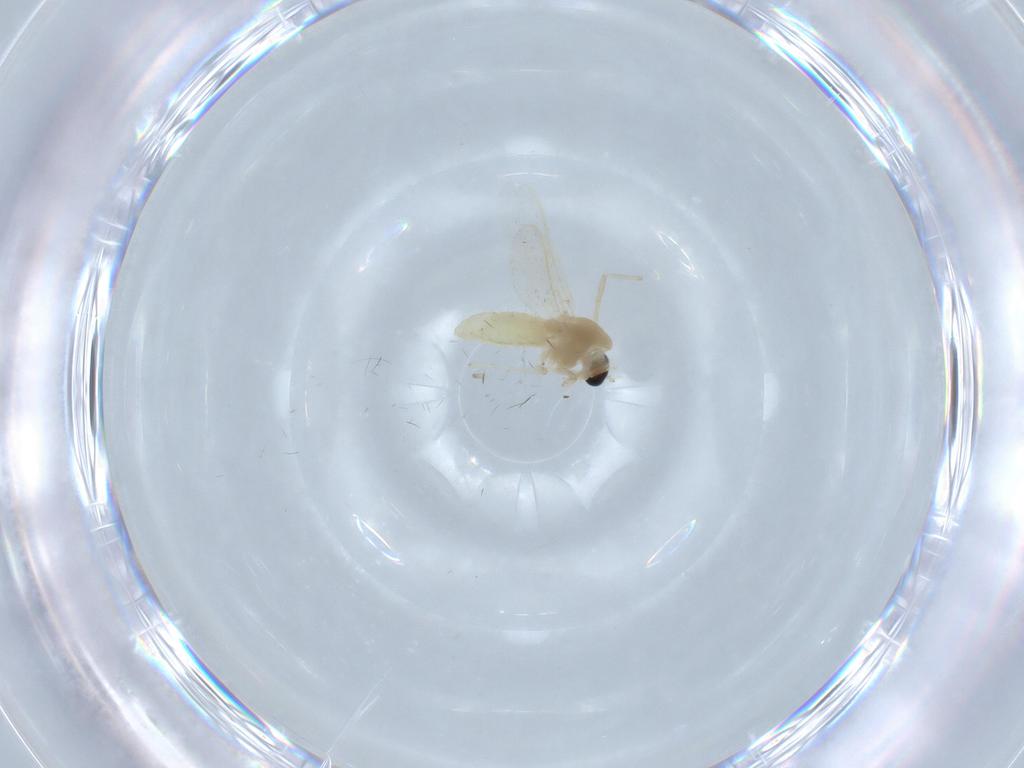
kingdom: Animalia
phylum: Arthropoda
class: Insecta
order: Diptera
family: Chironomidae
